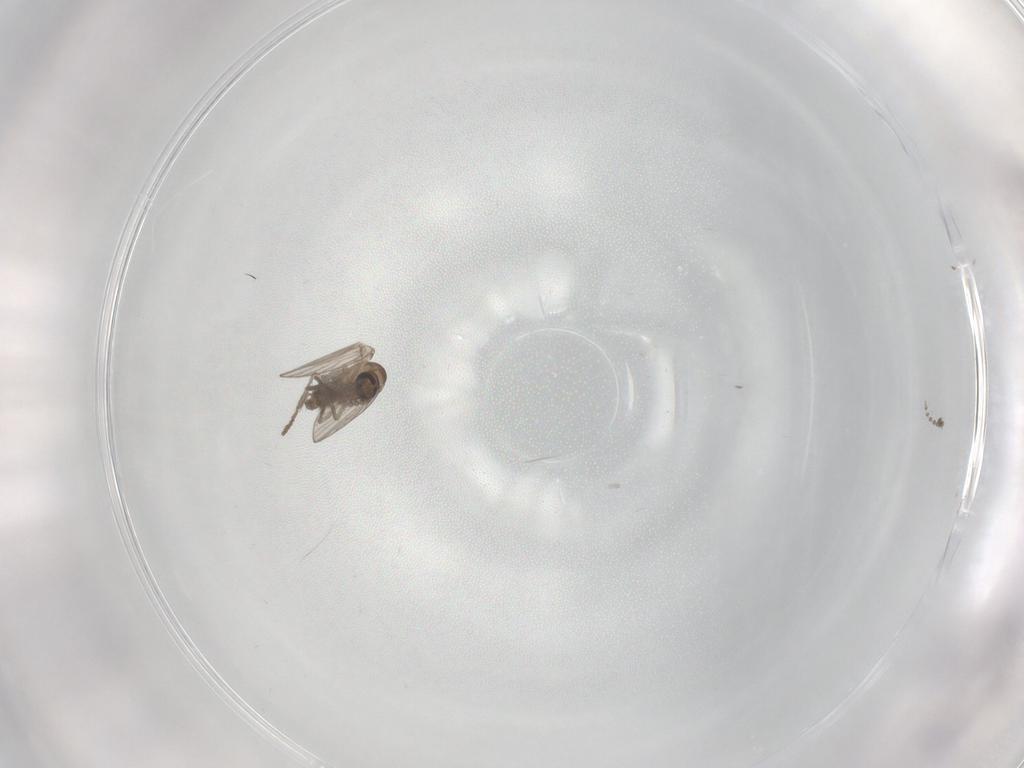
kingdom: Animalia
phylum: Arthropoda
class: Insecta
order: Diptera
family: Psychodidae
